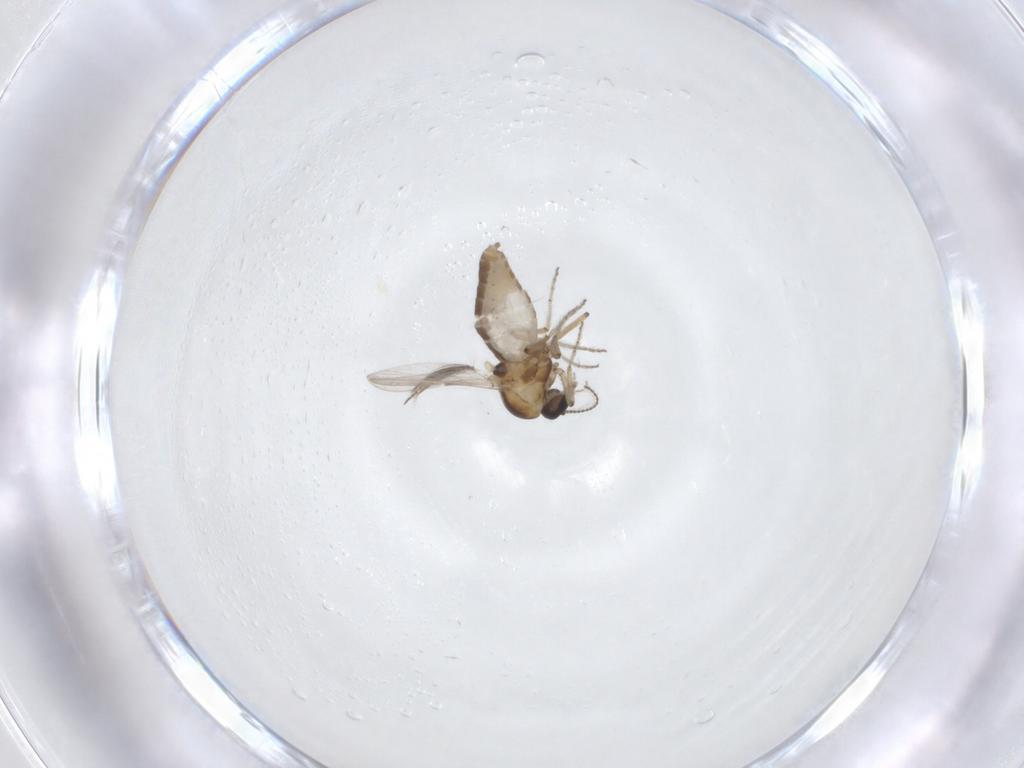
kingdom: Animalia
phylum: Arthropoda
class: Insecta
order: Diptera
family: Ceratopogonidae
